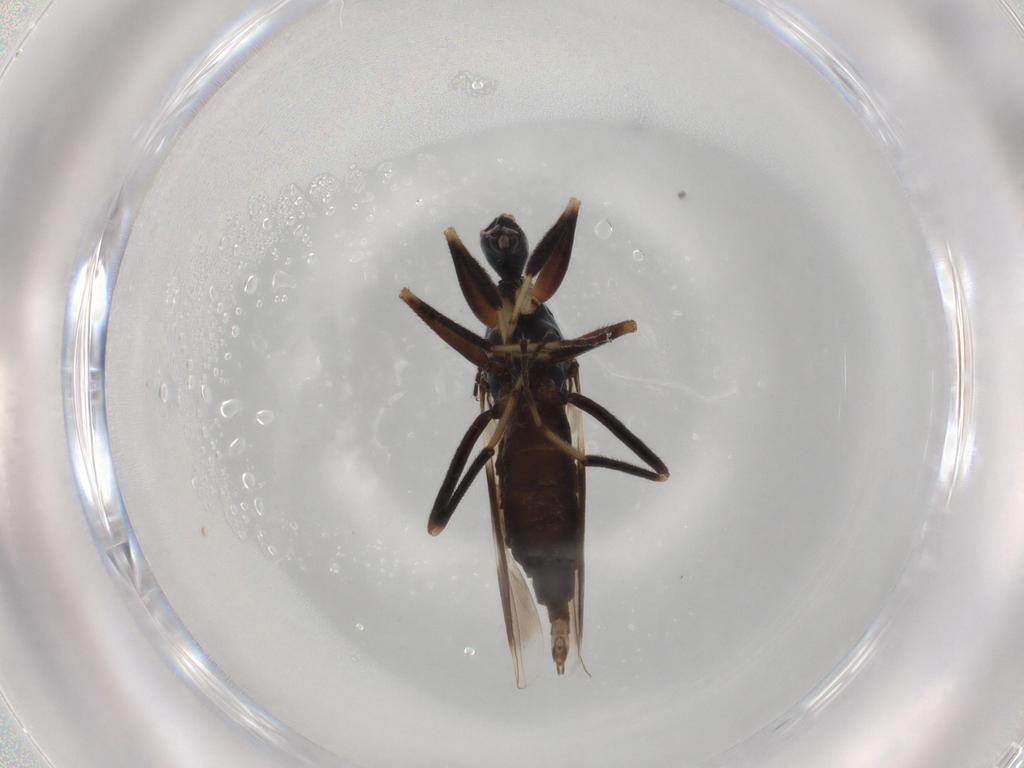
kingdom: Animalia
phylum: Arthropoda
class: Insecta
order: Diptera
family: Hybotidae
